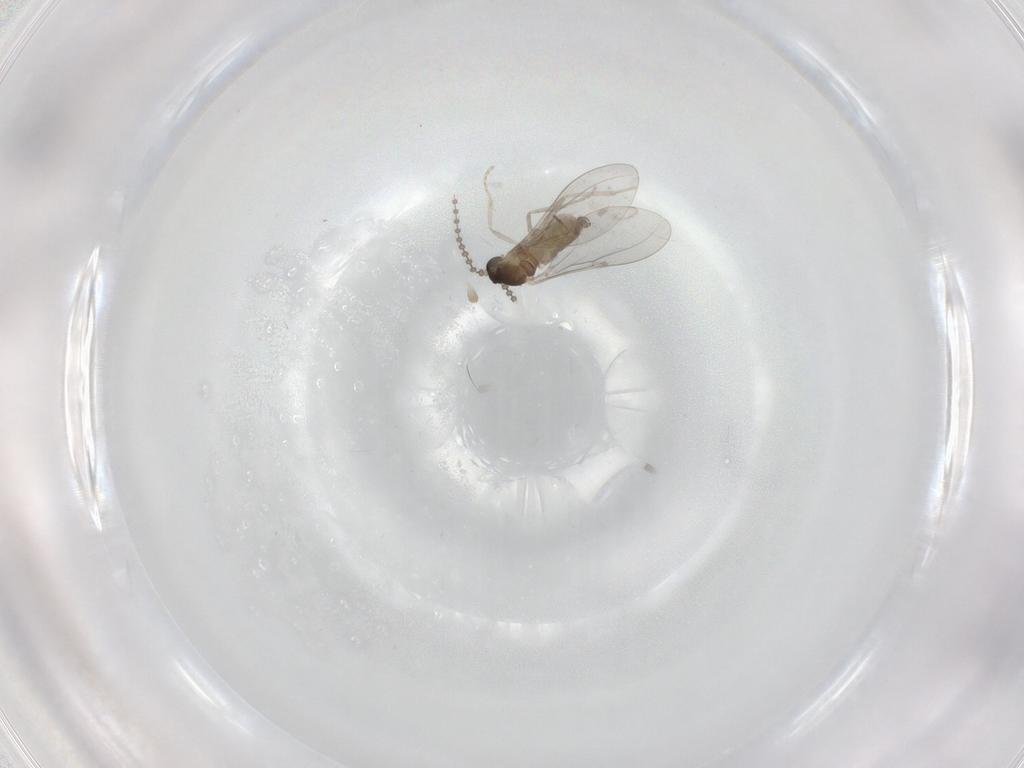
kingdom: Animalia
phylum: Arthropoda
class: Insecta
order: Diptera
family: Cecidomyiidae
